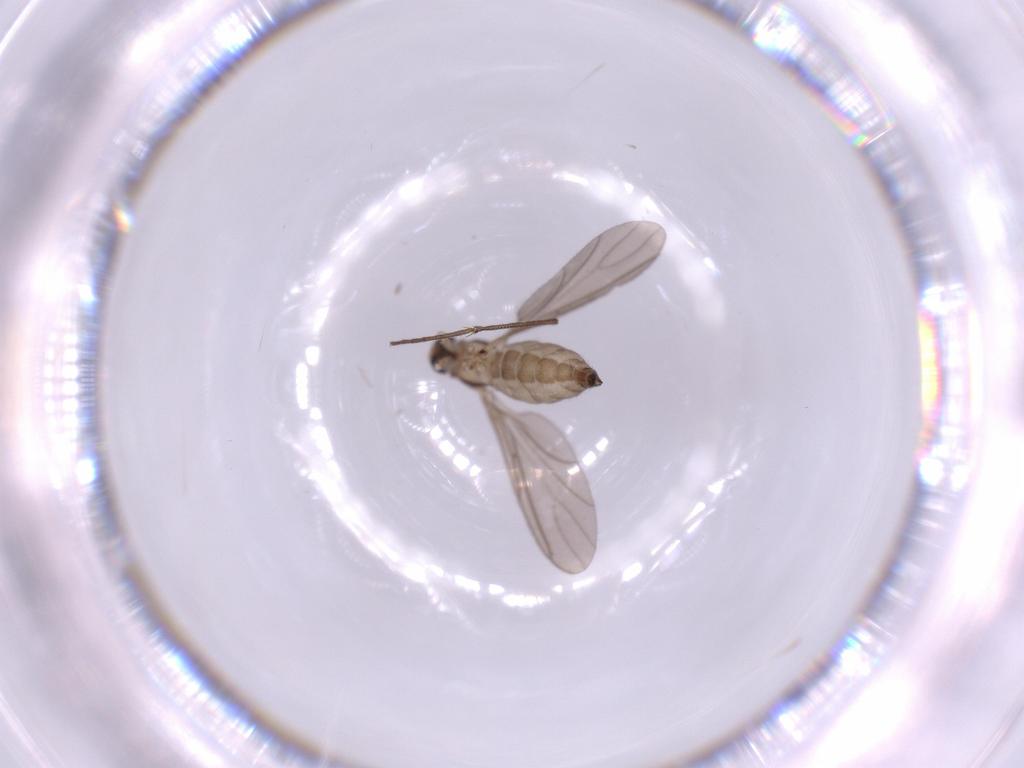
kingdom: Animalia
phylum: Arthropoda
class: Insecta
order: Diptera
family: Sciaridae
